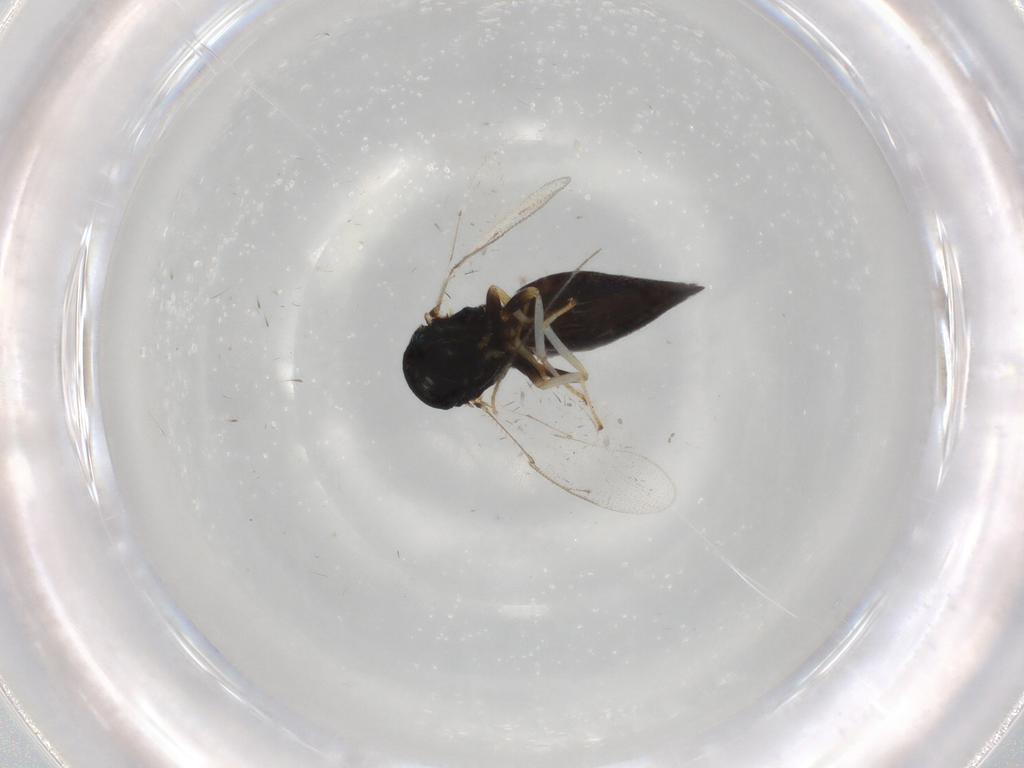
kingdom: Animalia
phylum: Arthropoda
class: Insecta
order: Hymenoptera
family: Pteromalidae
